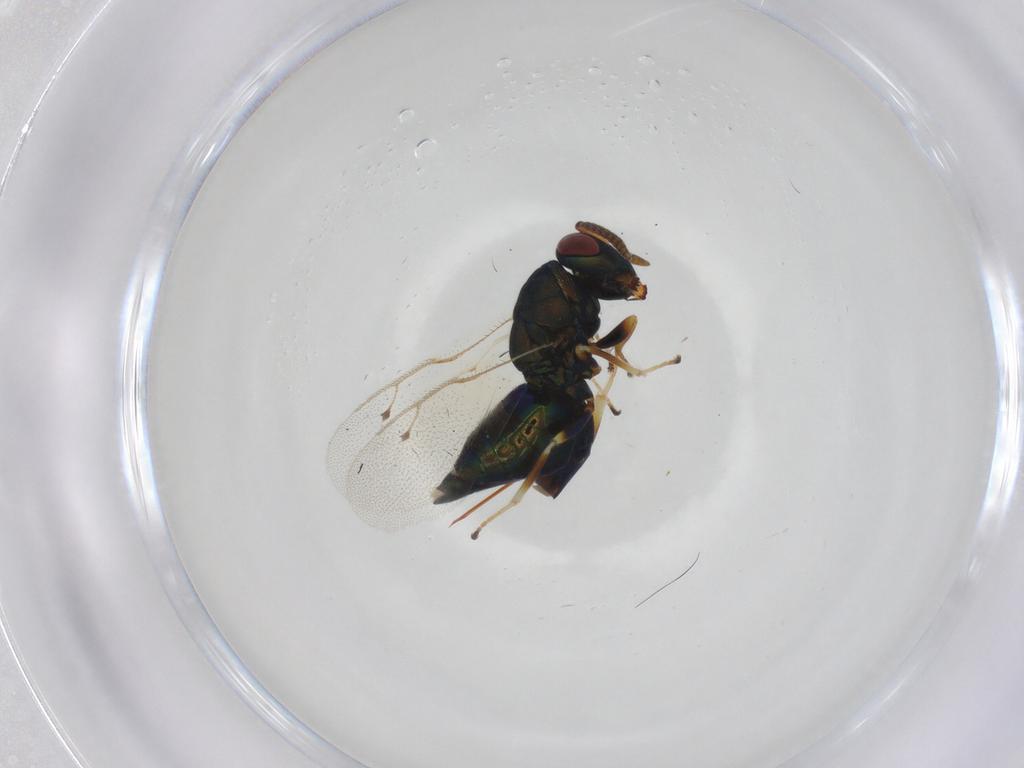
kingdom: Animalia
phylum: Arthropoda
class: Insecta
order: Hymenoptera
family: Pteromalidae
